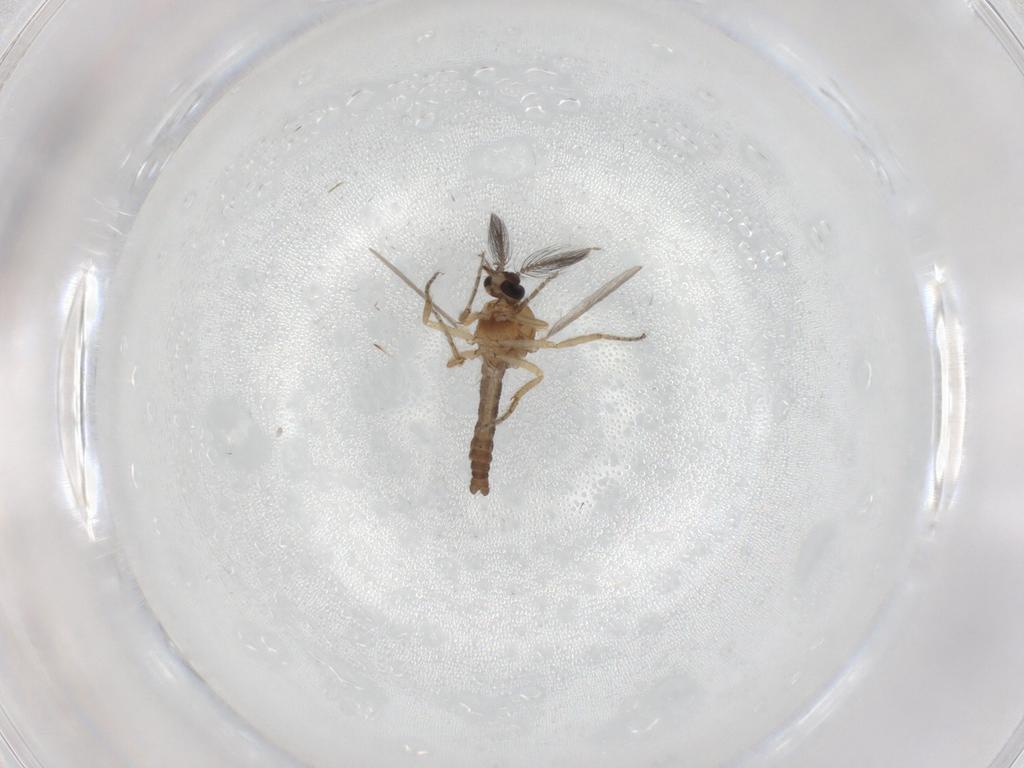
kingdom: Animalia
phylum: Arthropoda
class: Insecta
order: Diptera
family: Ceratopogonidae
